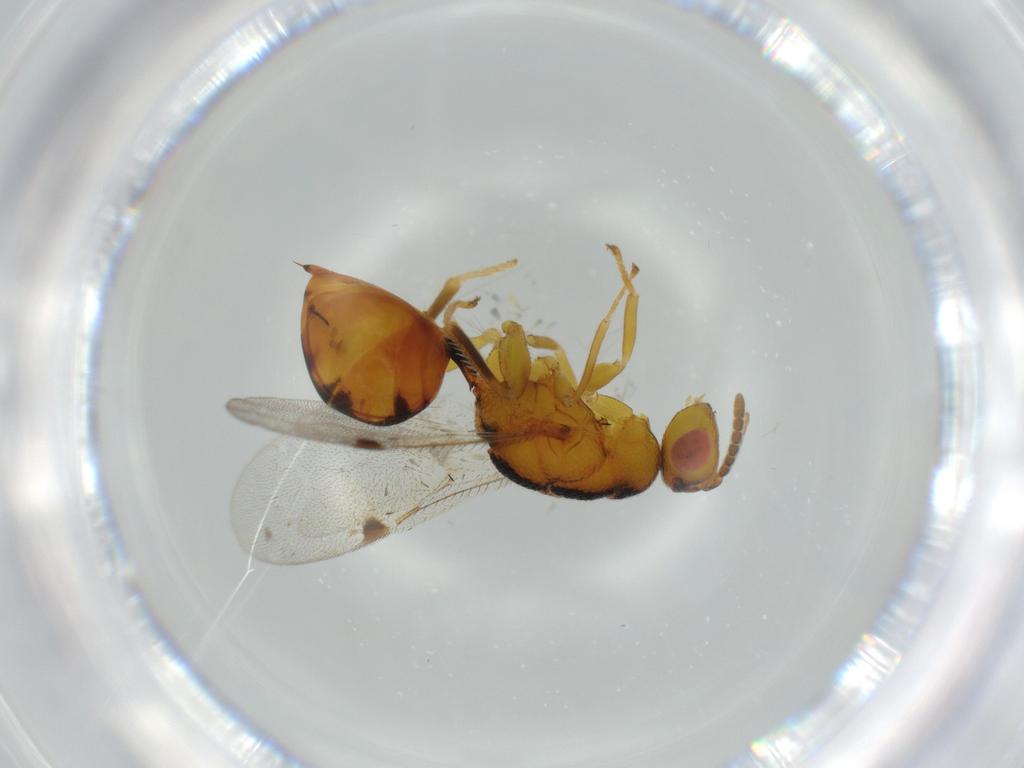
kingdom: Animalia
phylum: Arthropoda
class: Insecta
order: Hymenoptera
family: Eurytomidae
